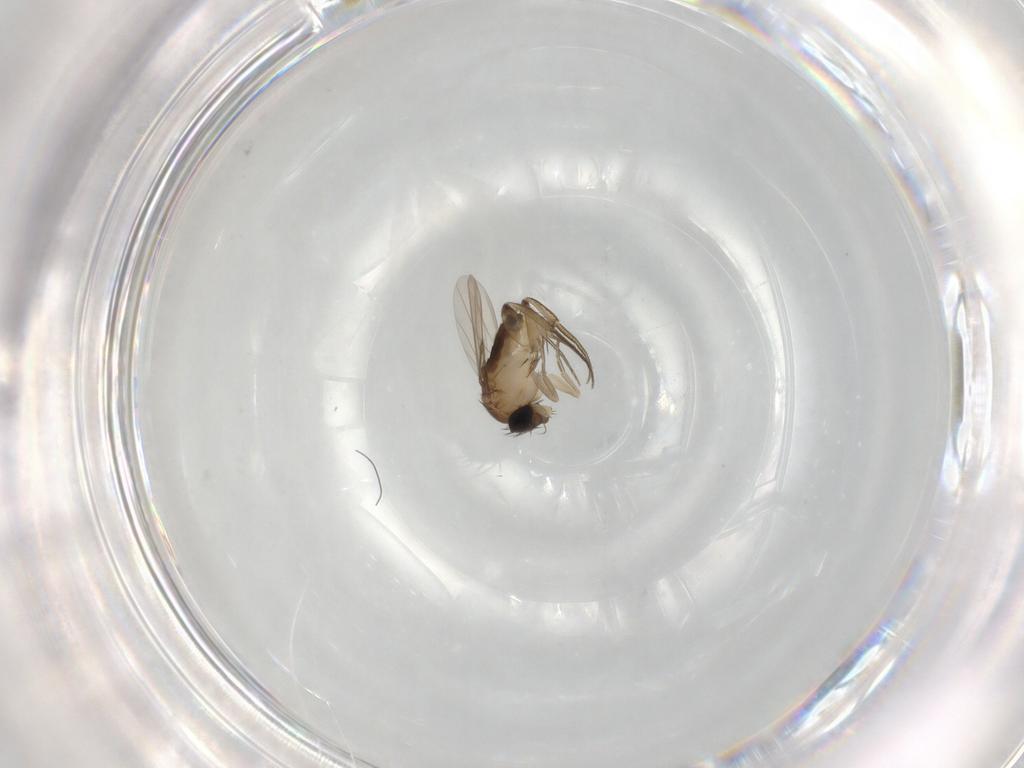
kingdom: Animalia
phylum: Arthropoda
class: Insecta
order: Diptera
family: Phoridae
